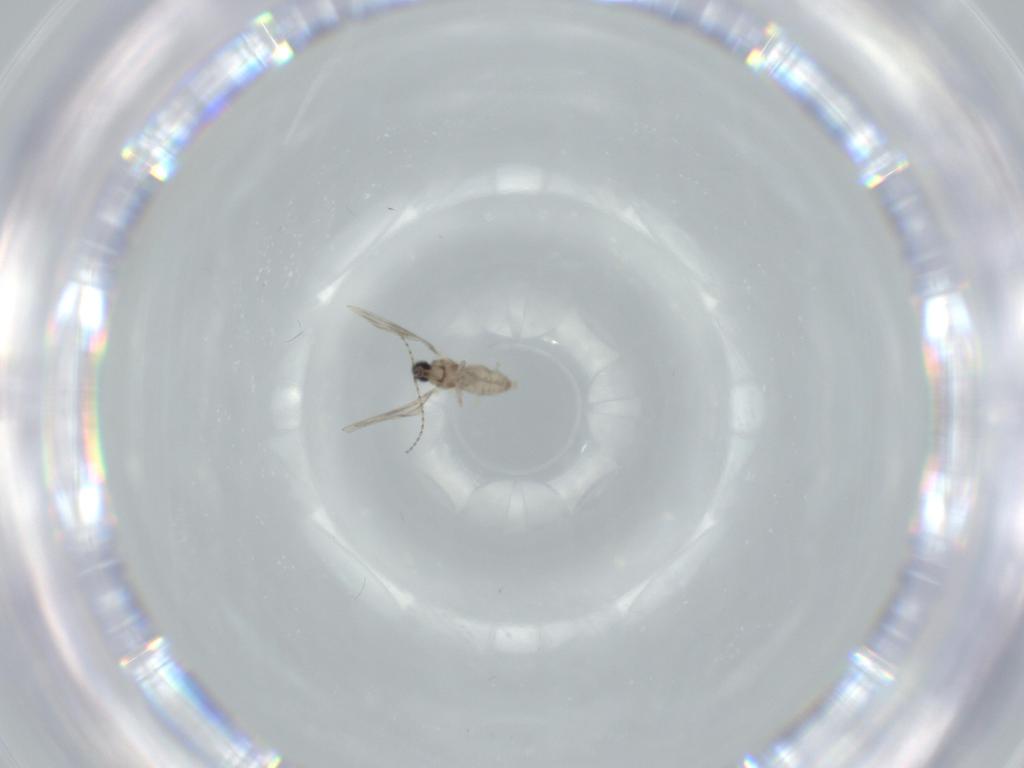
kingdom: Animalia
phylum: Arthropoda
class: Insecta
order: Diptera
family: Cecidomyiidae
